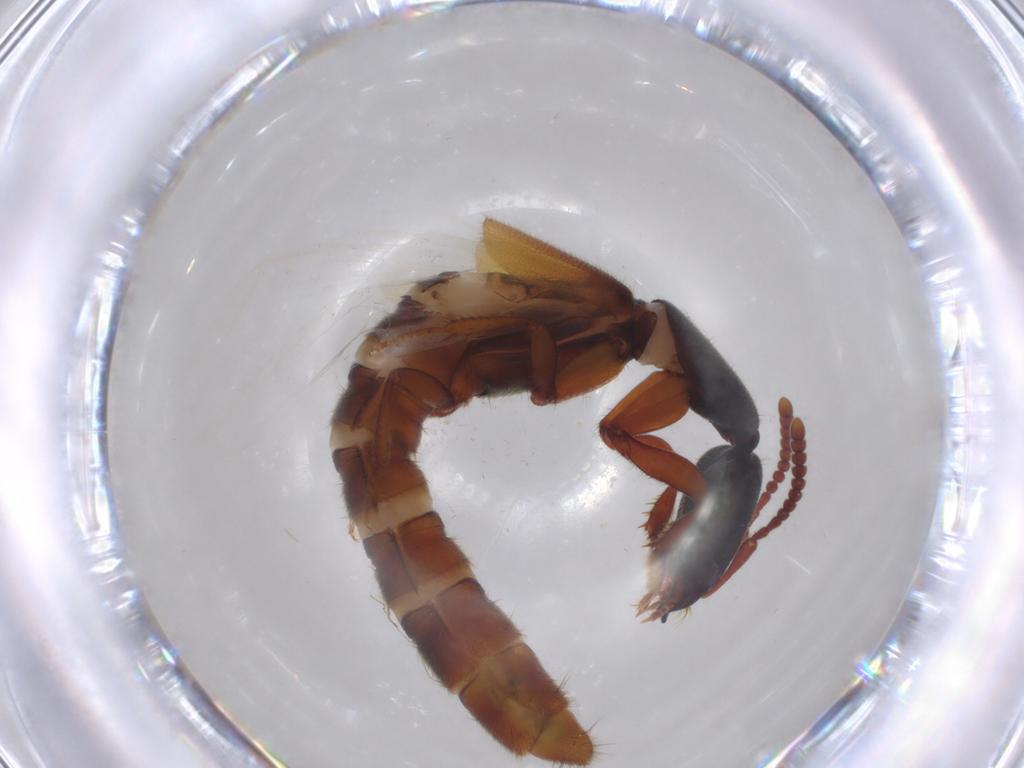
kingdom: Animalia
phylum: Arthropoda
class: Insecta
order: Coleoptera
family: Staphylinidae
